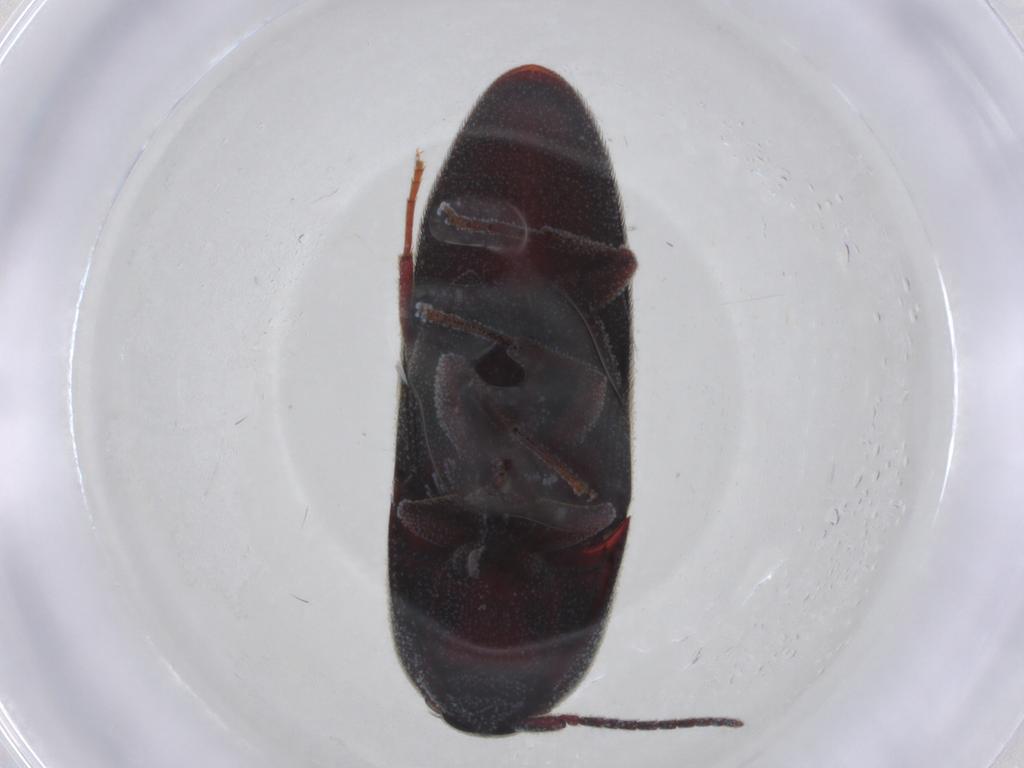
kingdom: Animalia
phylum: Arthropoda
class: Insecta
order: Coleoptera
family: Eucnemidae
